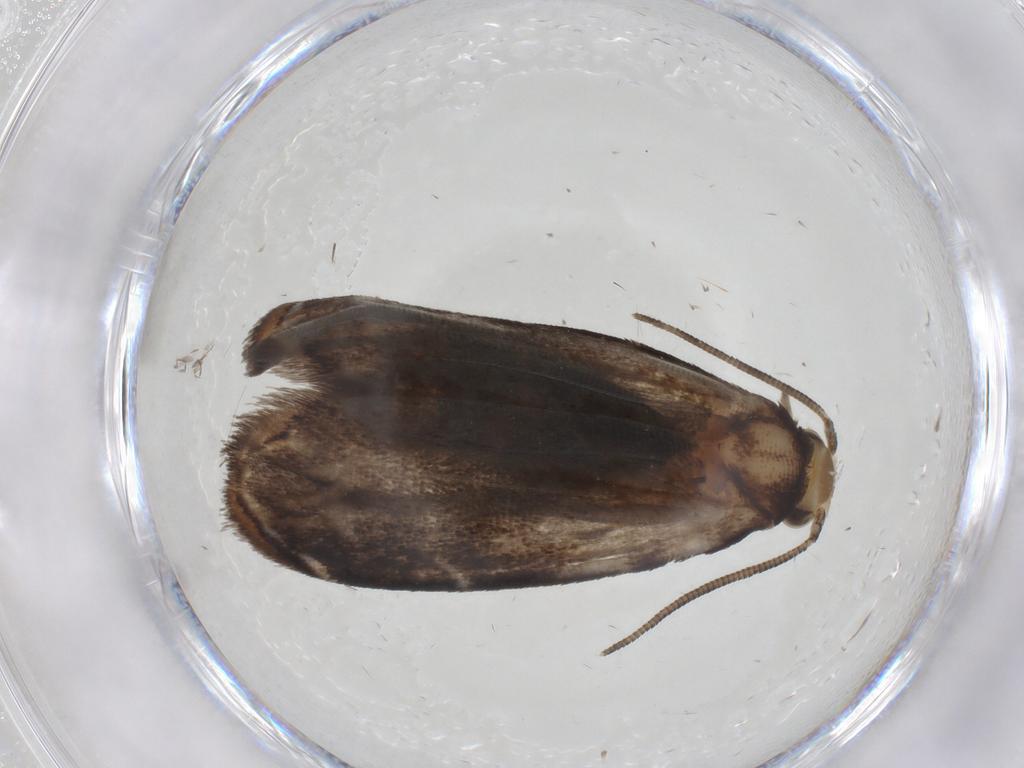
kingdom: Animalia
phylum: Arthropoda
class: Insecta
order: Lepidoptera
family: Dryadaulidae
